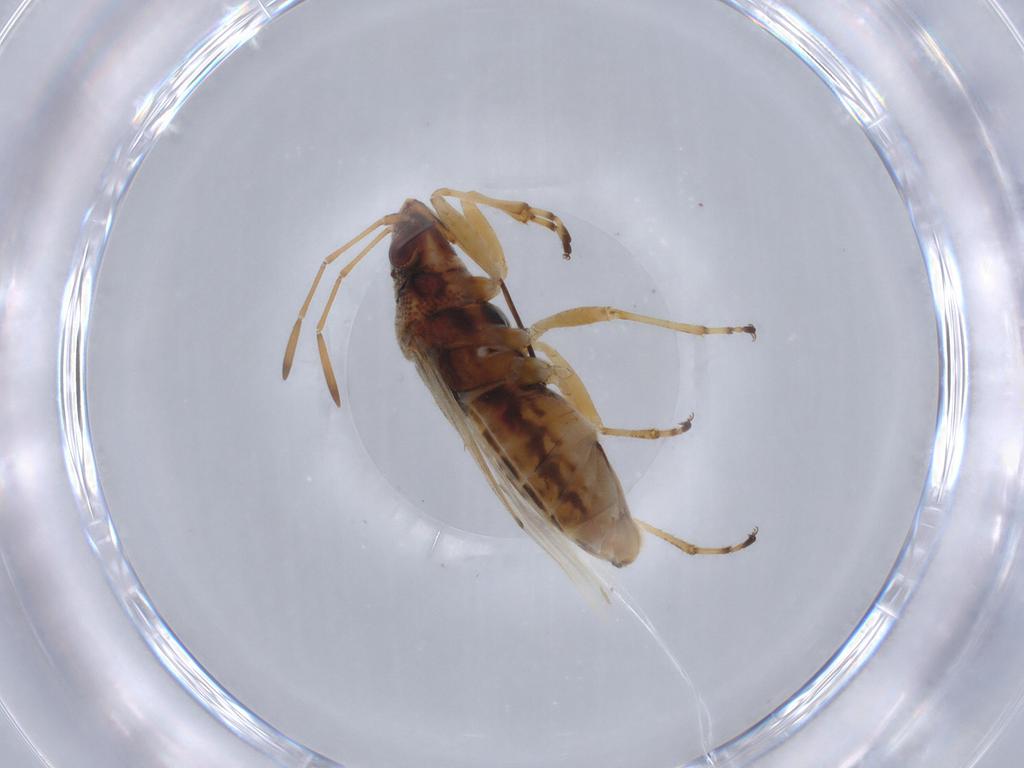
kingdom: Animalia
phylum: Arthropoda
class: Insecta
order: Hemiptera
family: Lygaeidae
